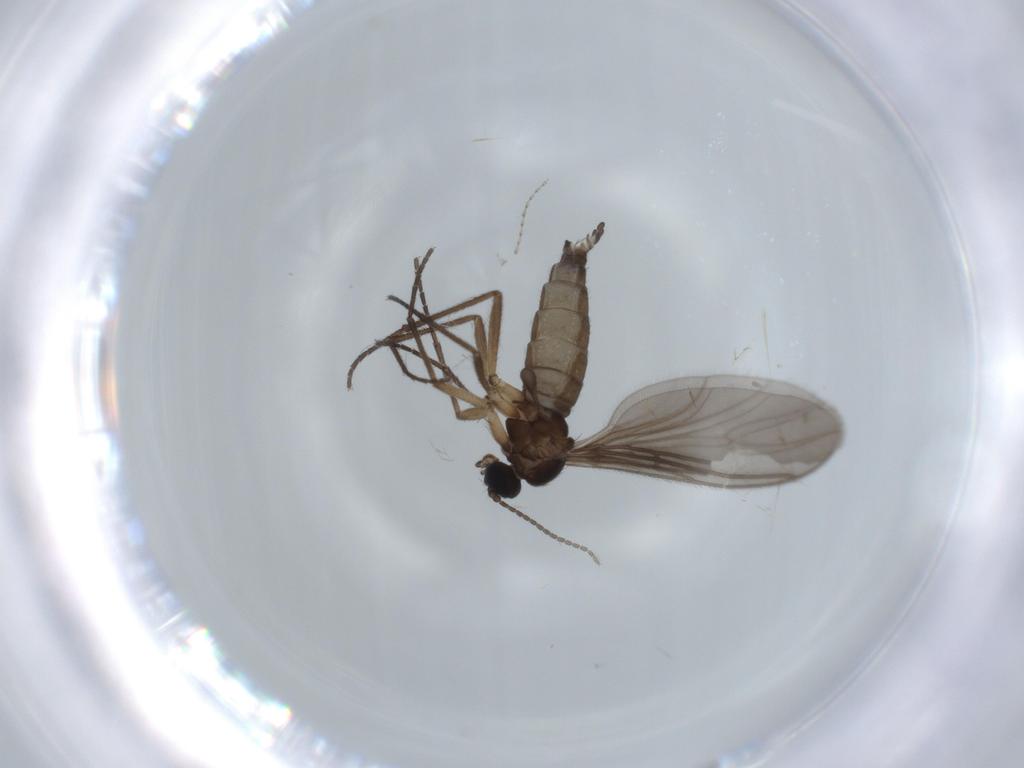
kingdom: Animalia
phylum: Arthropoda
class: Insecta
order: Diptera
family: Sciaridae
